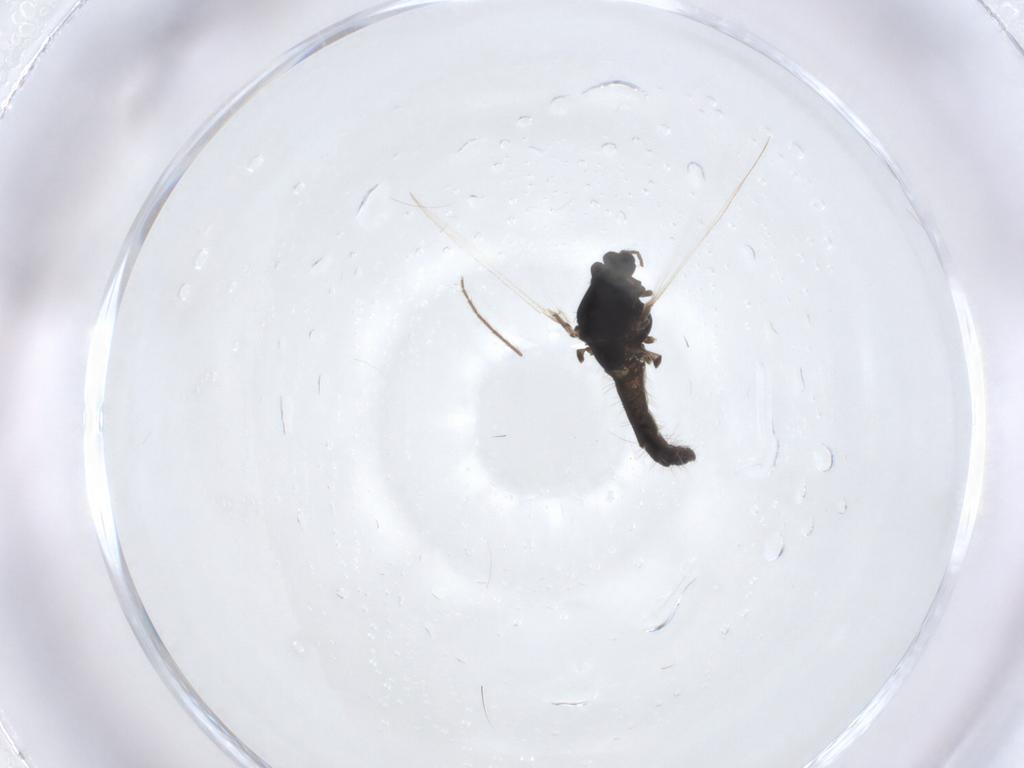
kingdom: Animalia
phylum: Arthropoda
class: Insecta
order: Diptera
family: Chironomidae
